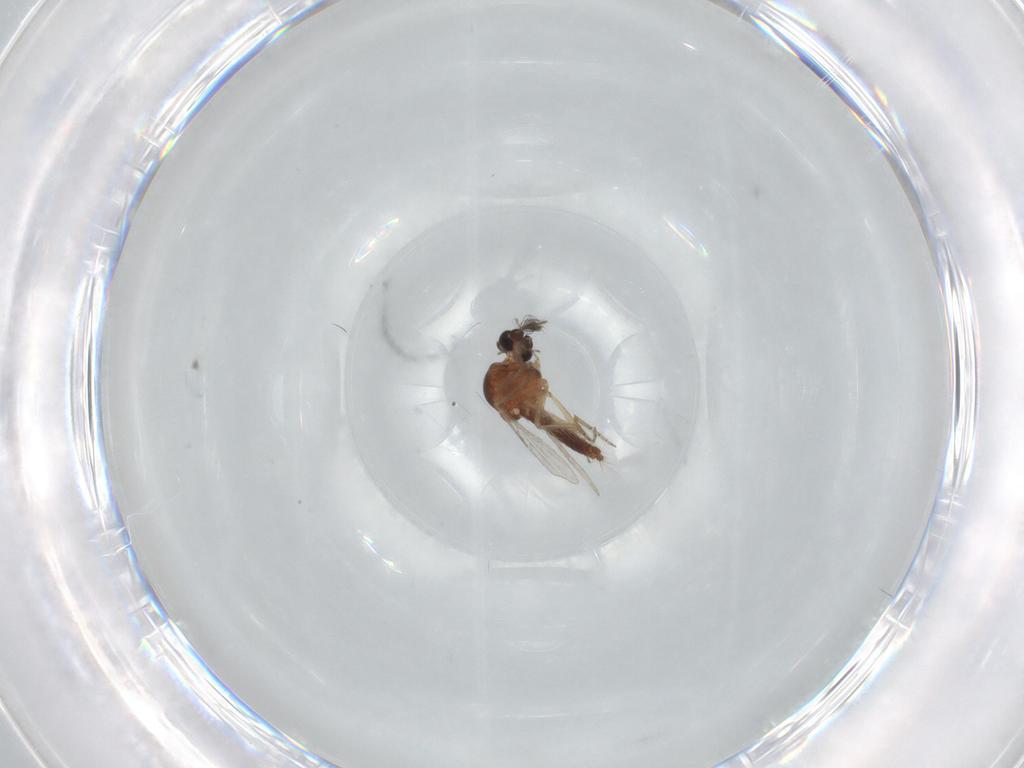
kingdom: Animalia
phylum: Arthropoda
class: Insecta
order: Diptera
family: Ceratopogonidae
